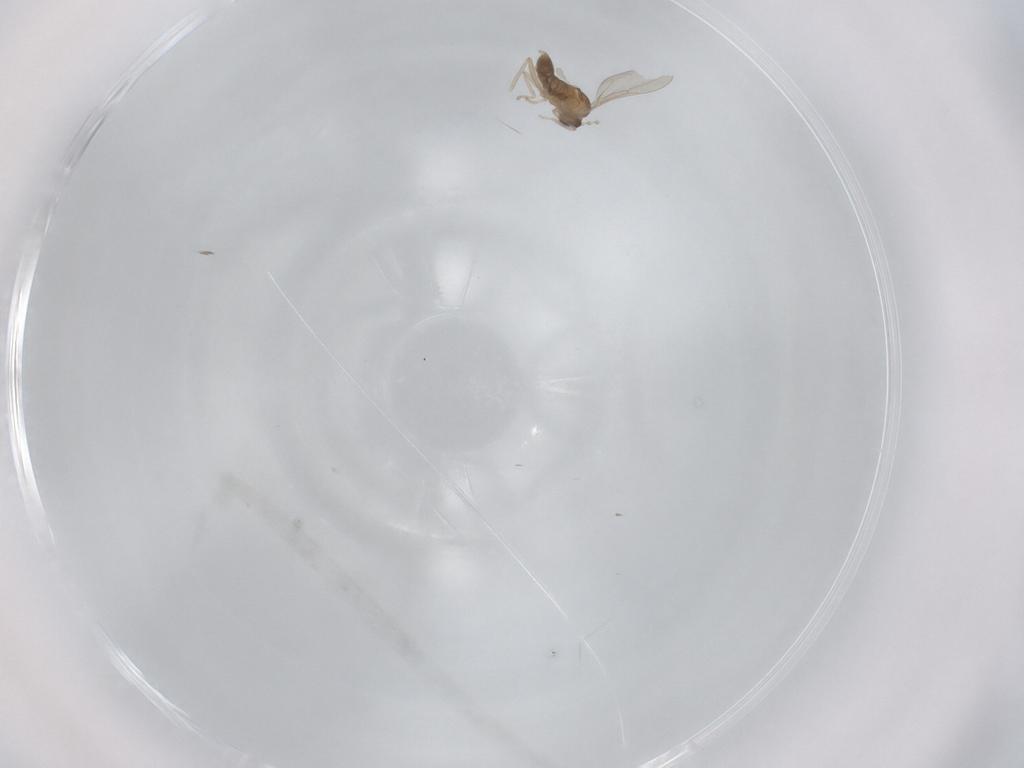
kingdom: Animalia
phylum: Arthropoda
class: Insecta
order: Diptera
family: Cecidomyiidae
